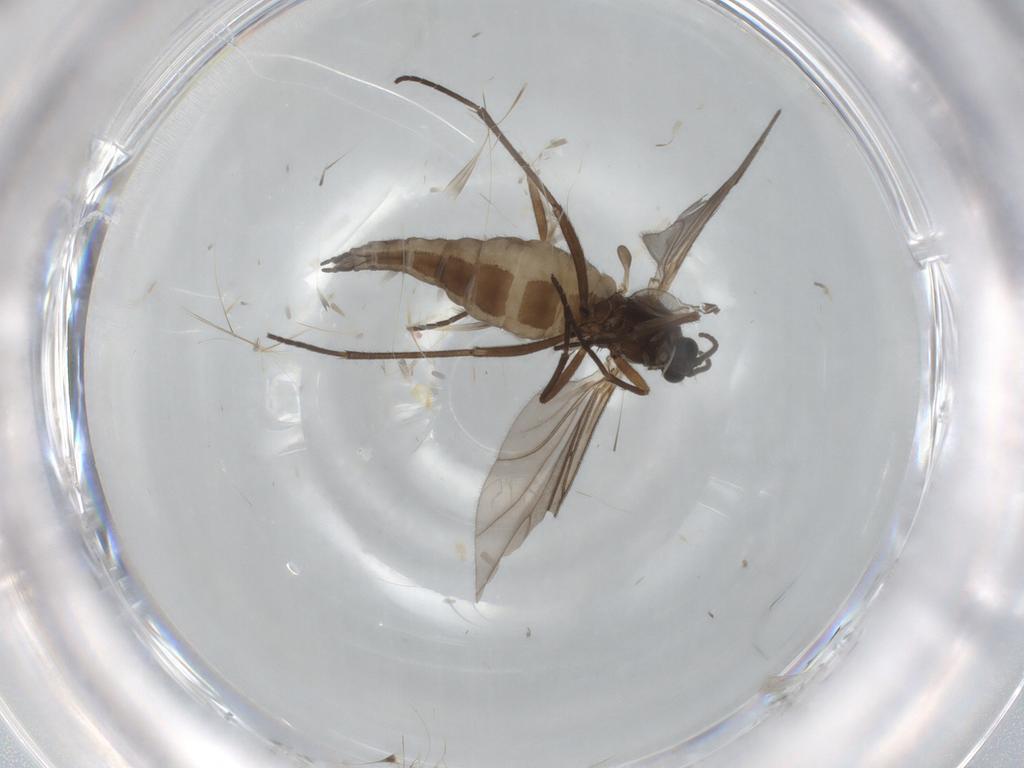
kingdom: Animalia
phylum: Arthropoda
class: Insecta
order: Diptera
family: Sciaridae
